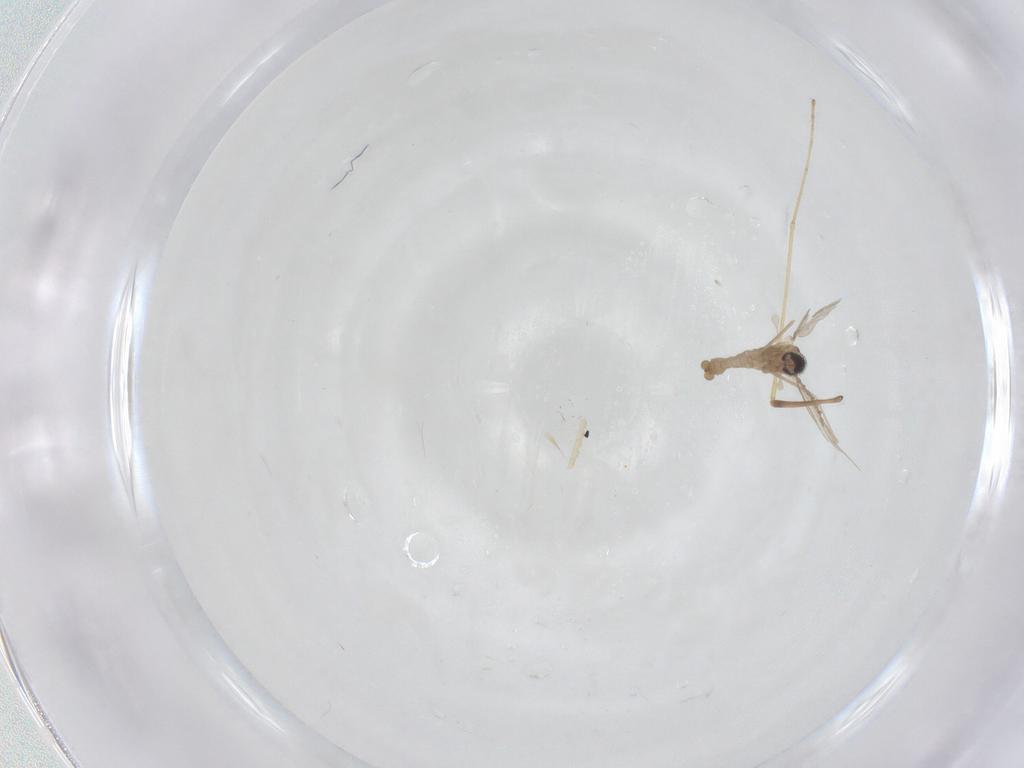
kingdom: Animalia
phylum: Arthropoda
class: Insecta
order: Diptera
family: Cecidomyiidae
